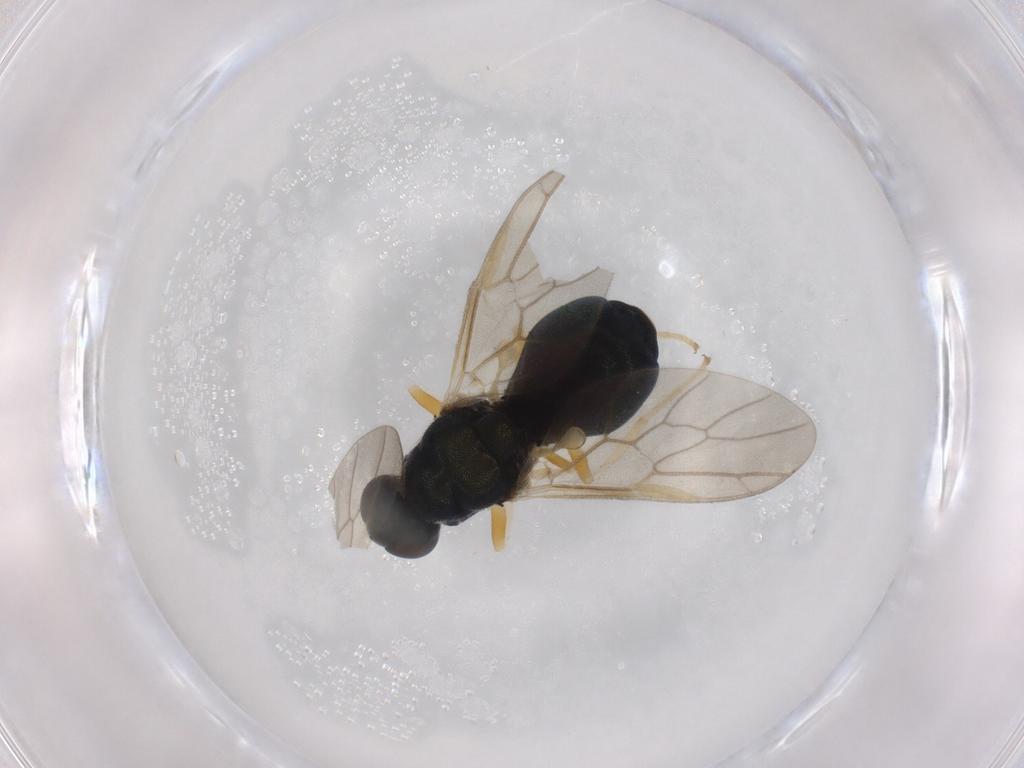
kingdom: Animalia
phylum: Arthropoda
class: Insecta
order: Diptera
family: Stratiomyidae
